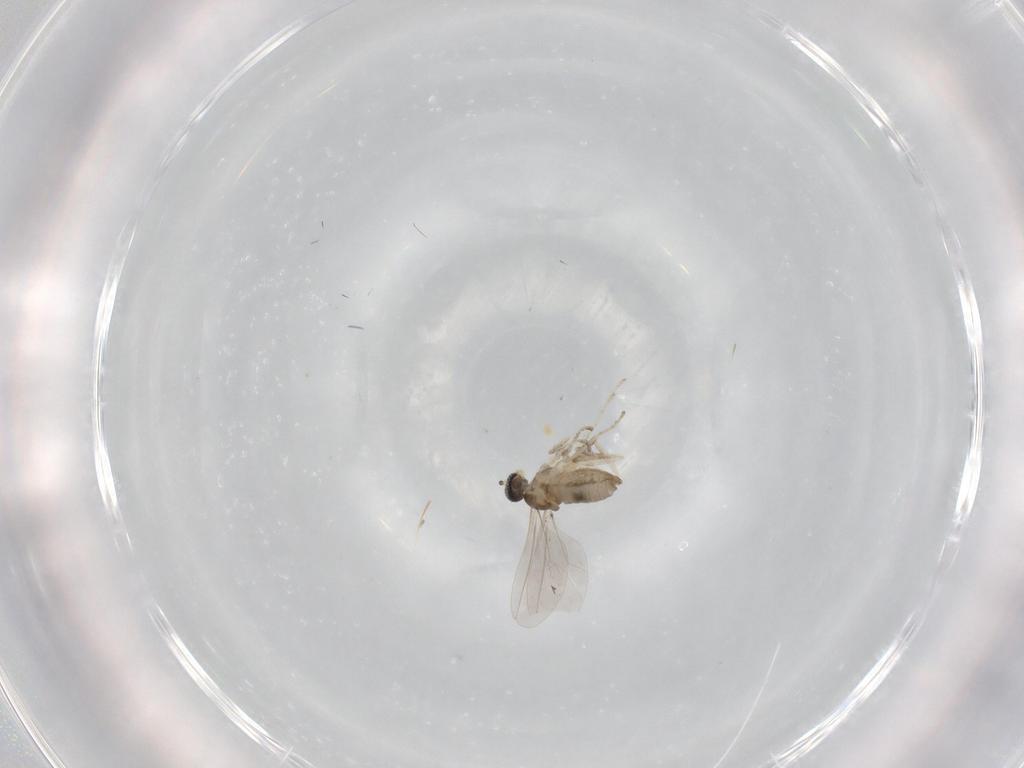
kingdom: Animalia
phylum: Arthropoda
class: Insecta
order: Diptera
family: Cecidomyiidae
